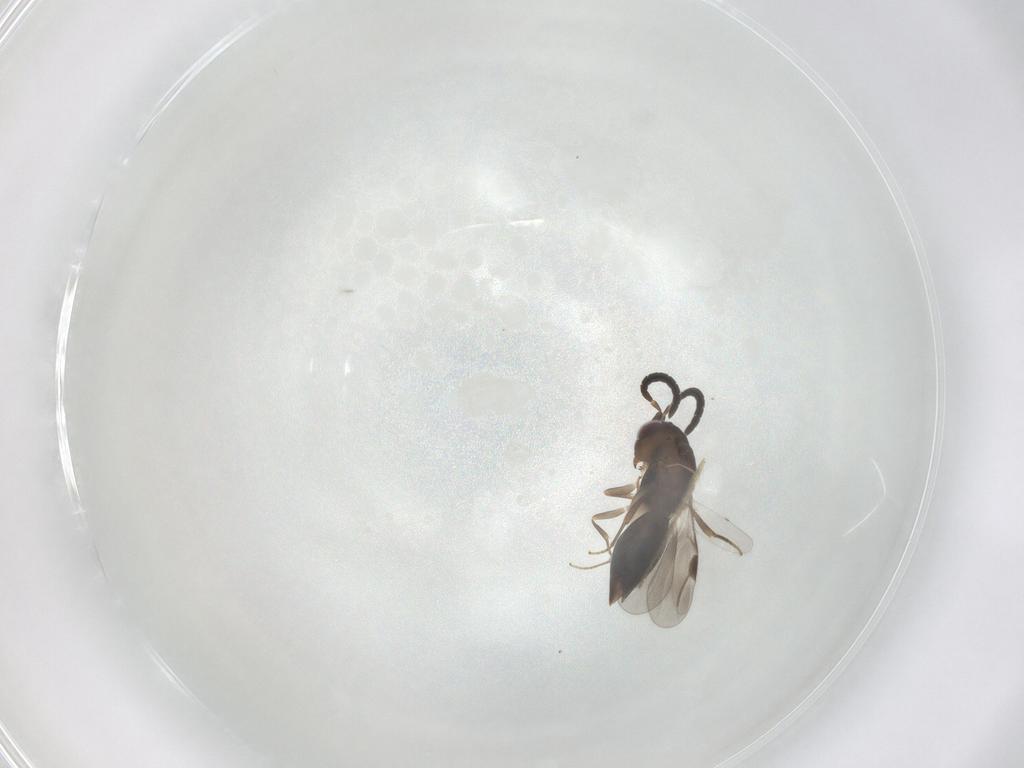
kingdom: Animalia
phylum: Arthropoda
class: Insecta
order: Hymenoptera
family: Megaspilidae
